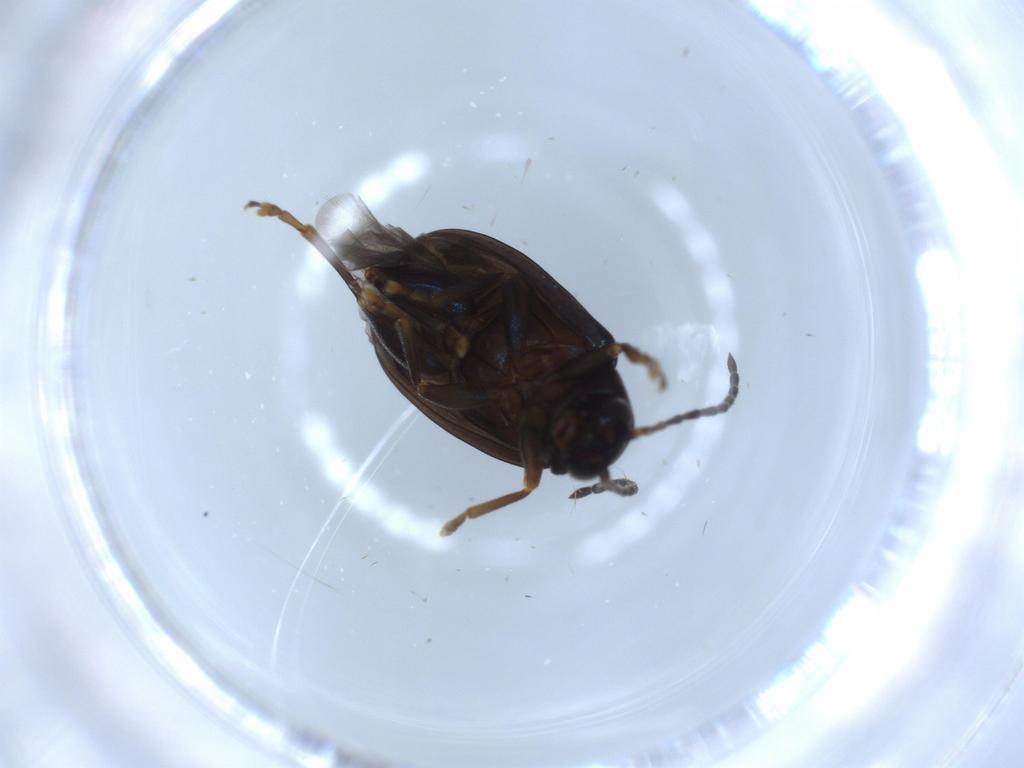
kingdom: Animalia
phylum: Arthropoda
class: Insecta
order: Coleoptera
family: Chrysomelidae
